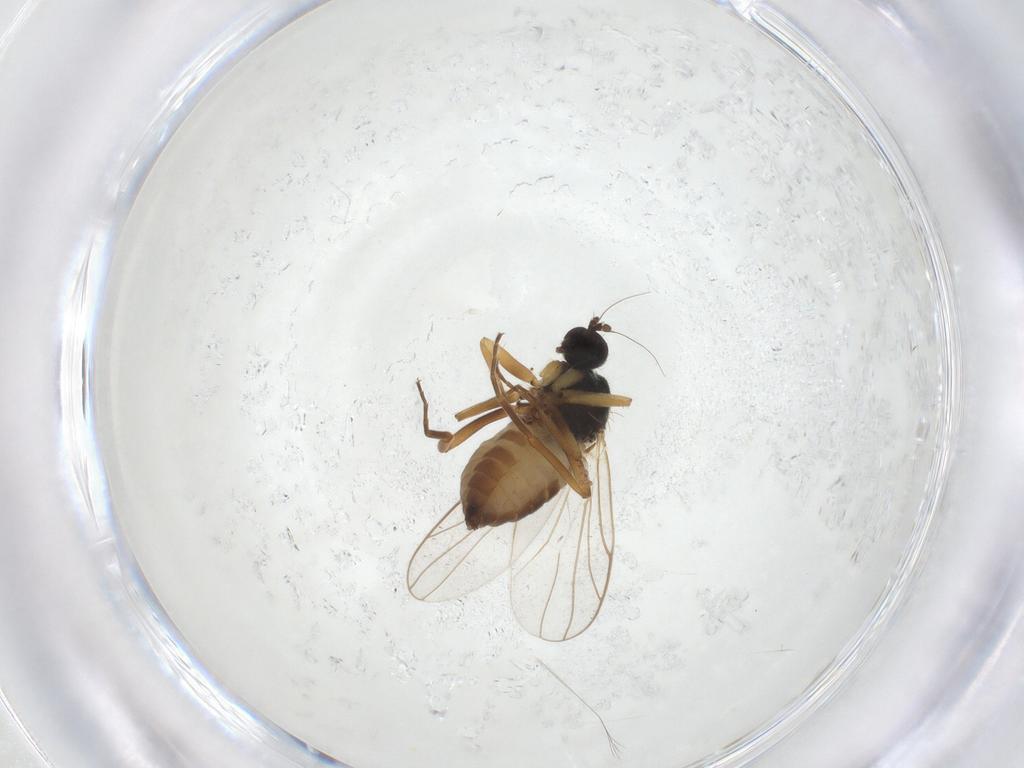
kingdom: Animalia
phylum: Arthropoda
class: Insecta
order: Diptera
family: Hybotidae
